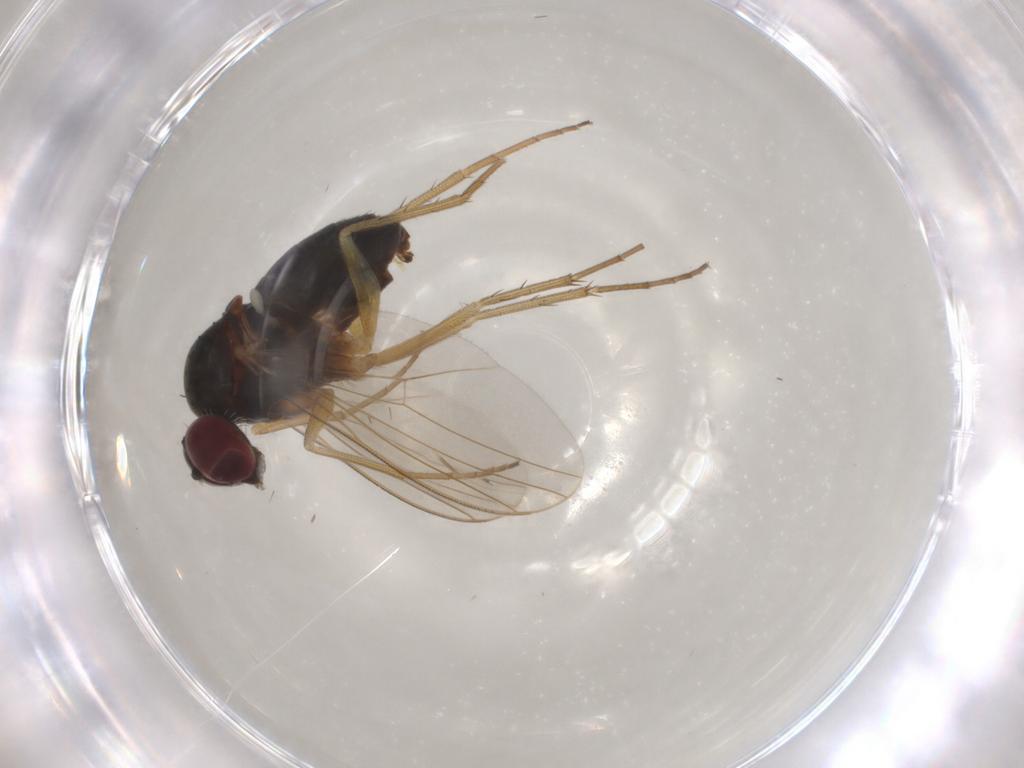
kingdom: Animalia
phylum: Arthropoda
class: Insecta
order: Diptera
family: Dolichopodidae
